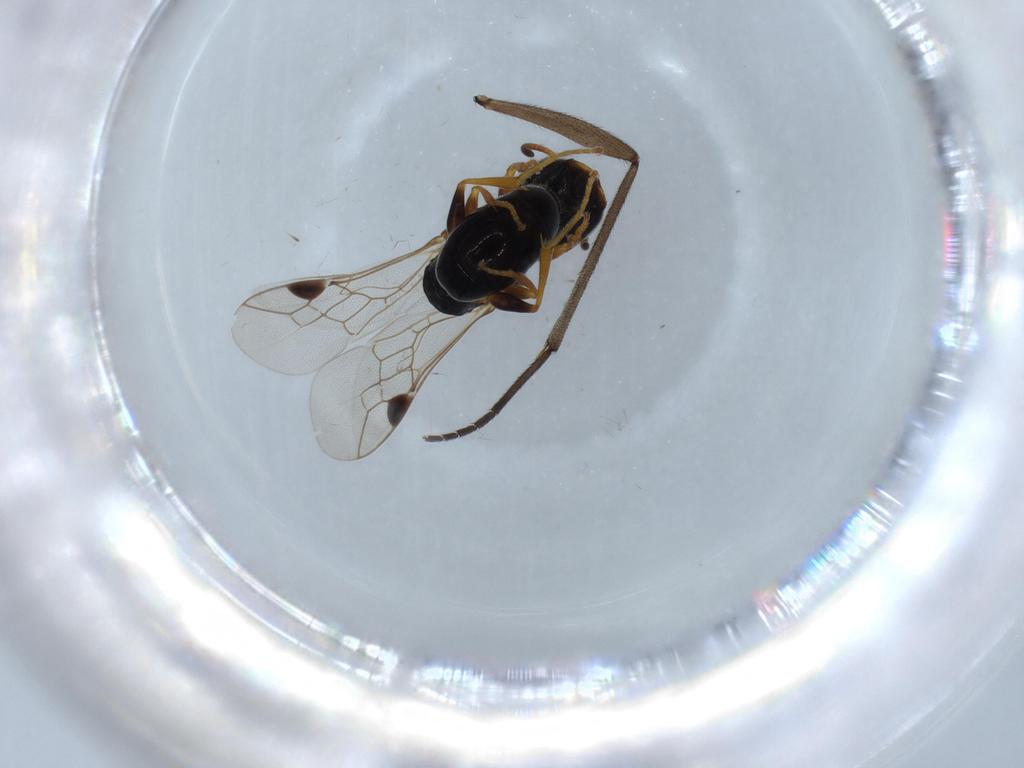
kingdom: Animalia
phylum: Arthropoda
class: Insecta
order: Hymenoptera
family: Pemphredonidae
